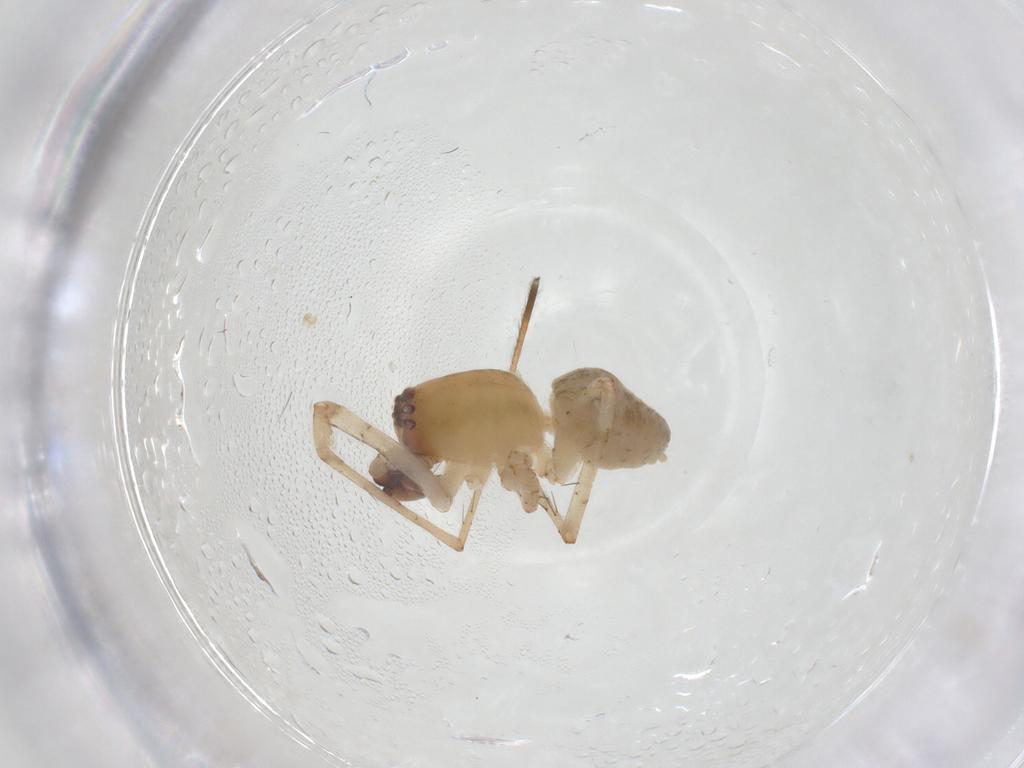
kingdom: Animalia
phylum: Arthropoda
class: Arachnida
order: Araneae
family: Anyphaenidae
